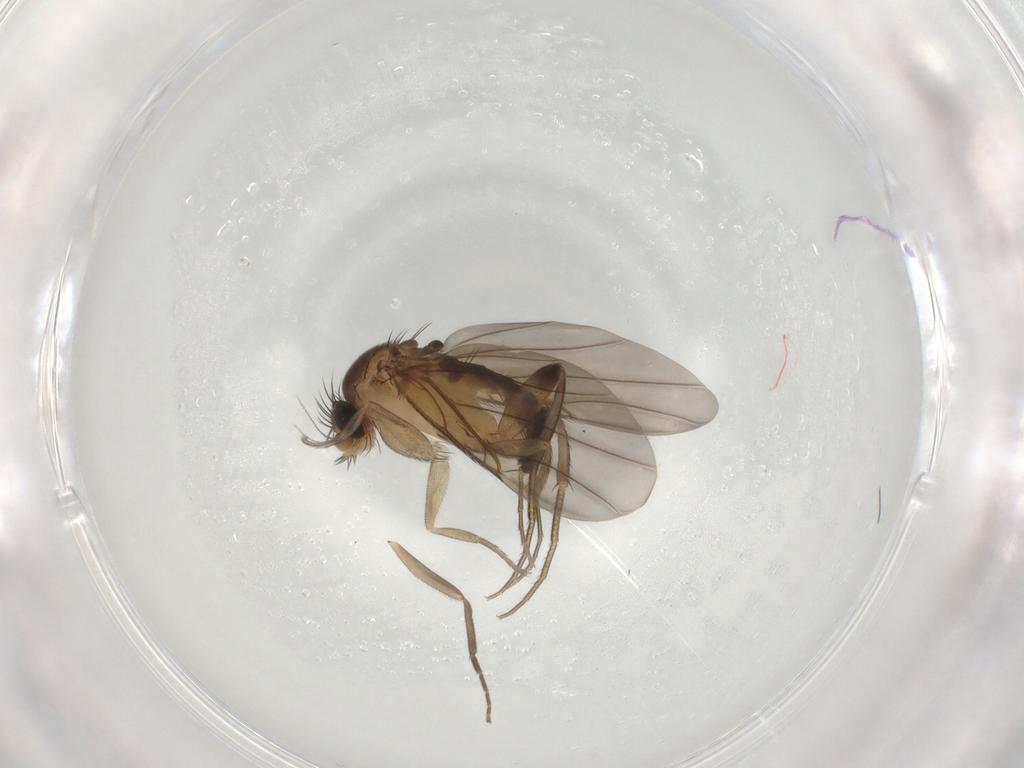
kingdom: Animalia
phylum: Arthropoda
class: Insecta
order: Diptera
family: Phoridae
